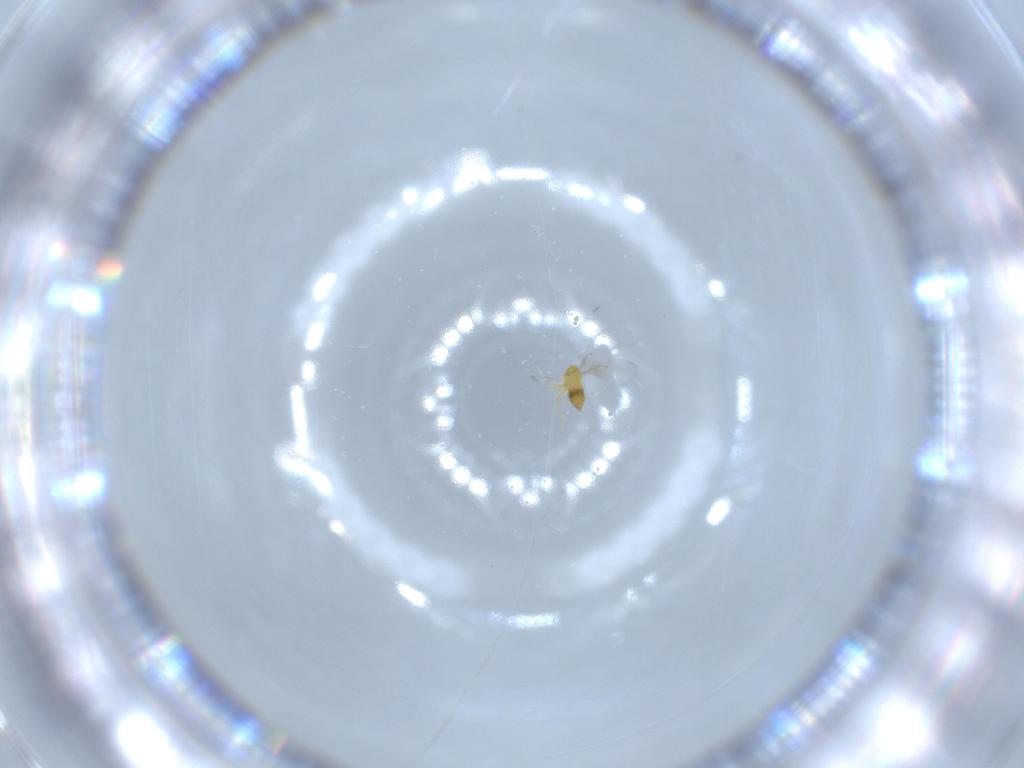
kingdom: Animalia
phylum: Arthropoda
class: Insecta
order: Hymenoptera
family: Trichogrammatidae
